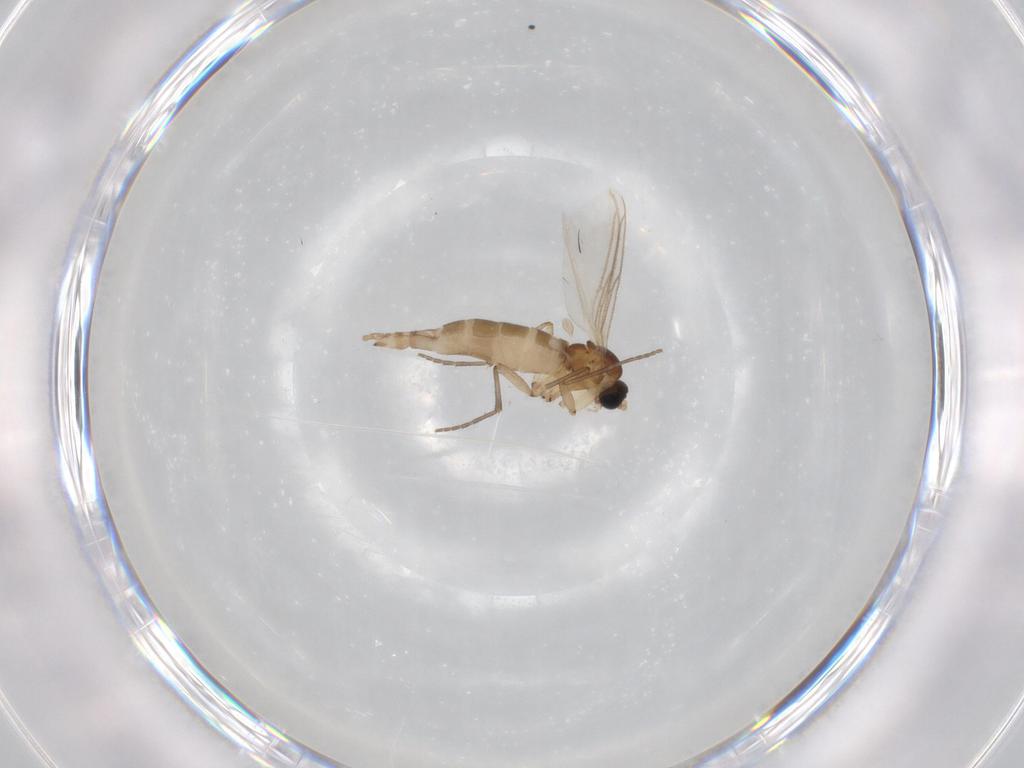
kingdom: Animalia
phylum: Arthropoda
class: Insecta
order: Diptera
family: Sciaridae
